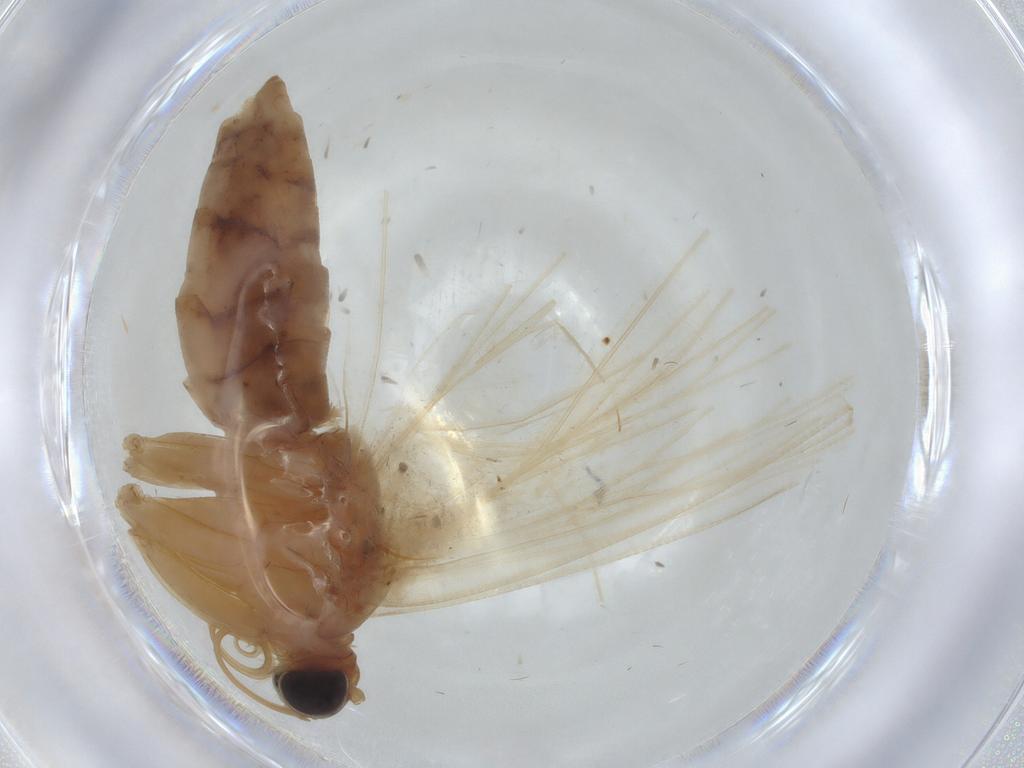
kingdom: Animalia
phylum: Arthropoda
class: Insecta
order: Lepidoptera
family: Geometridae
